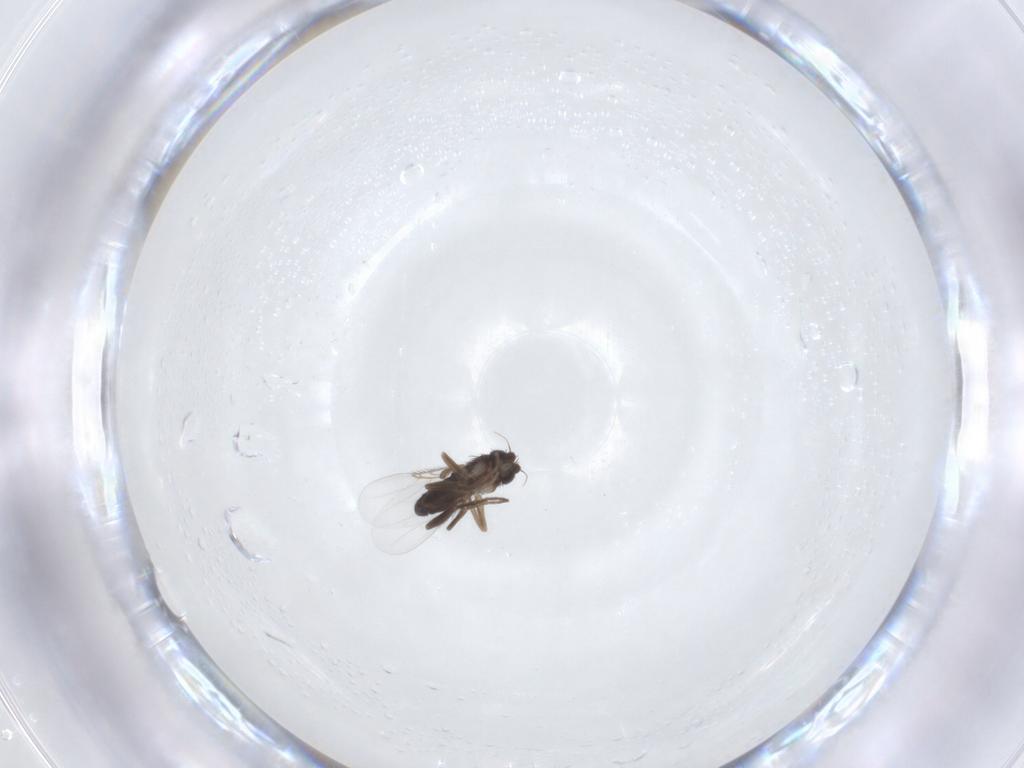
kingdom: Animalia
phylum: Arthropoda
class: Insecta
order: Diptera
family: Phoridae
